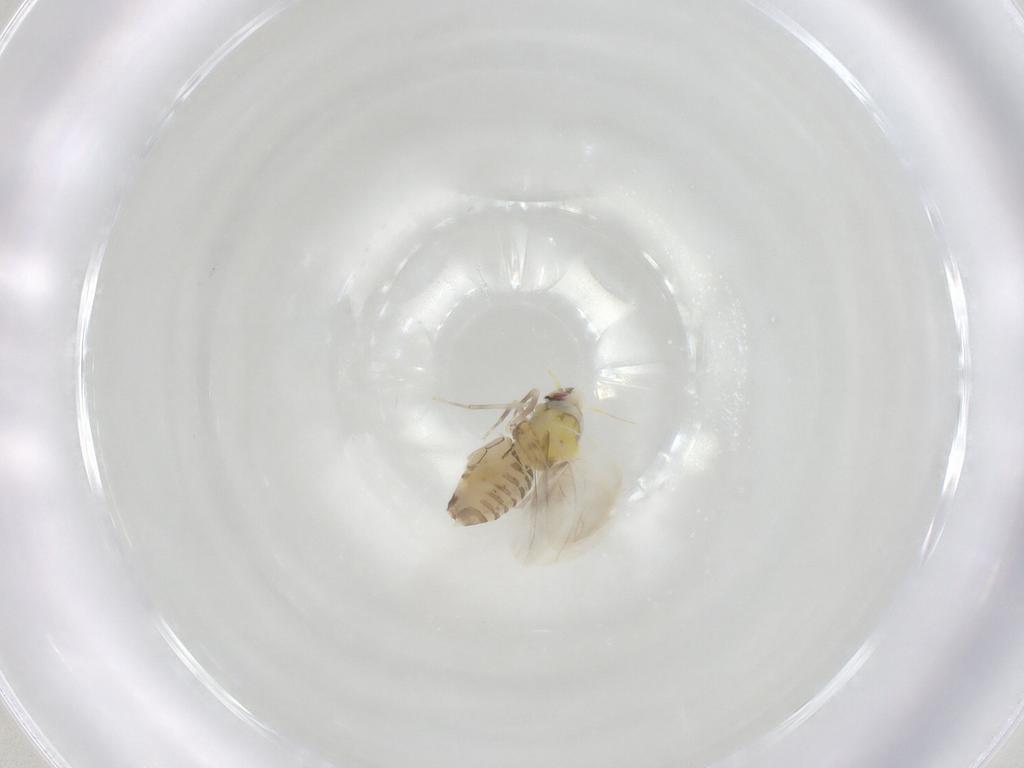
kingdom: Animalia
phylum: Arthropoda
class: Insecta
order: Hemiptera
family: Aleyrodidae
